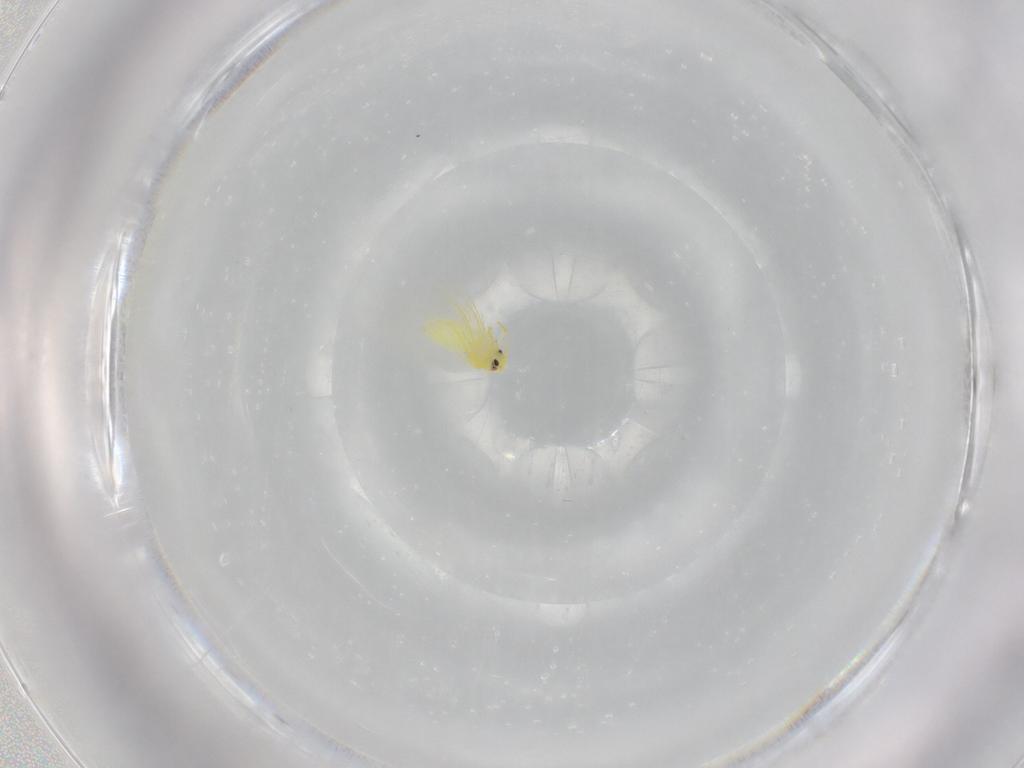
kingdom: Animalia
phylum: Arthropoda
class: Insecta
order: Hemiptera
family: Aleyrodidae
